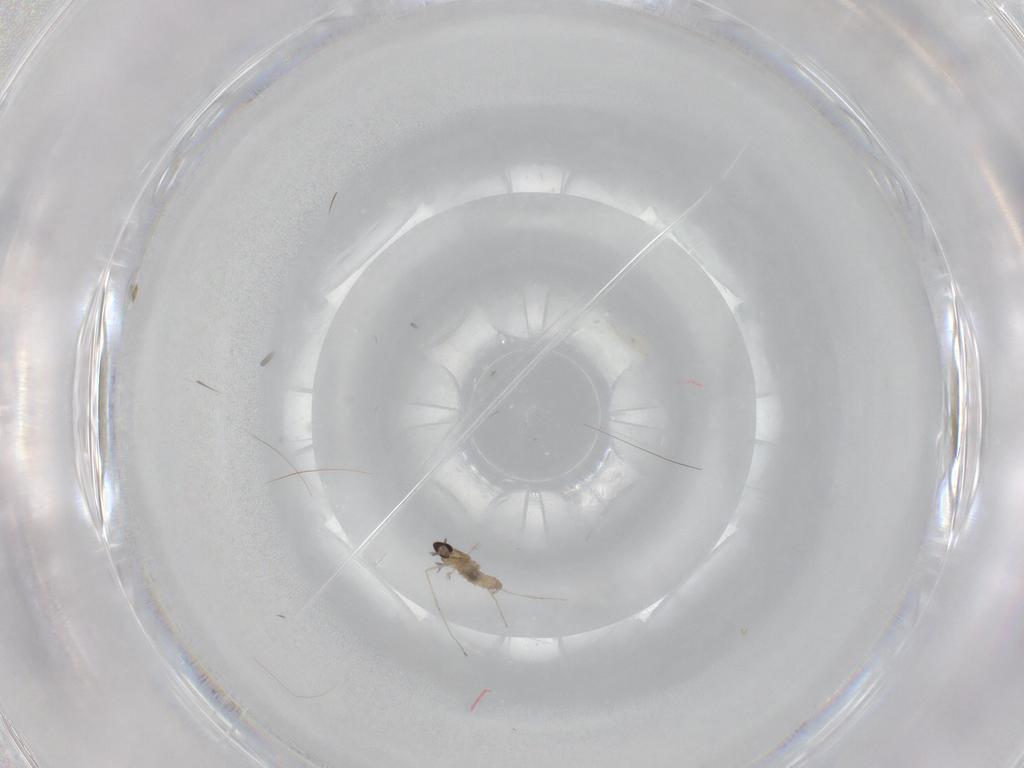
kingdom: Animalia
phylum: Arthropoda
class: Insecta
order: Diptera
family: Cecidomyiidae
